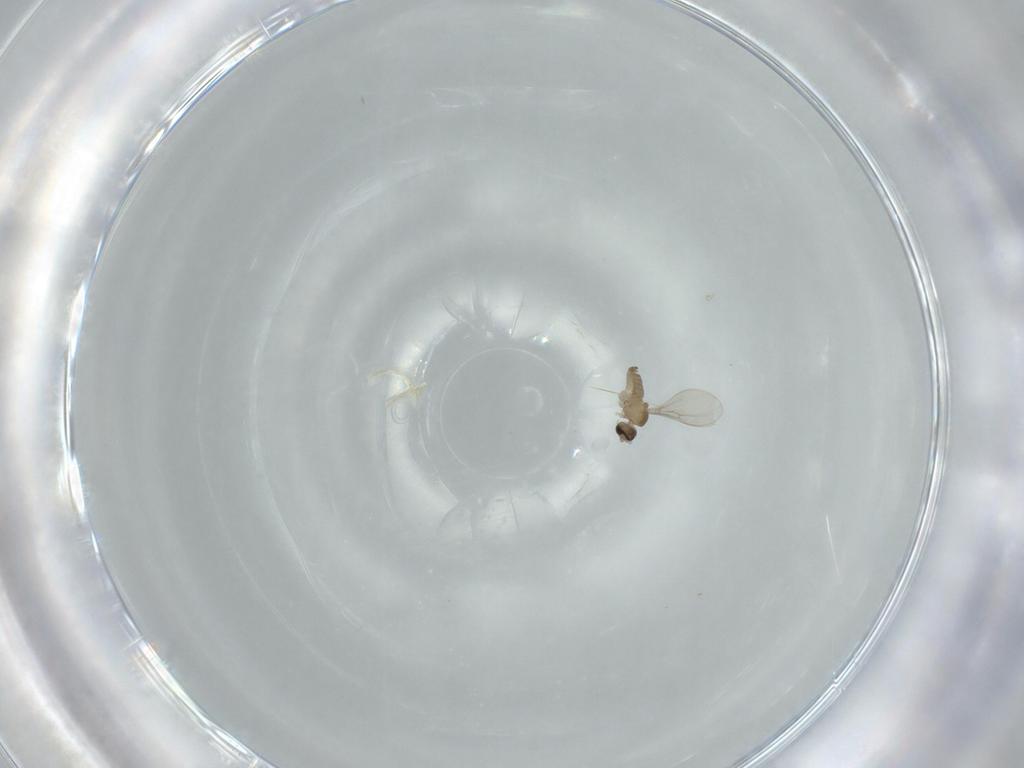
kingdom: Animalia
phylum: Arthropoda
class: Insecta
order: Diptera
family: Cecidomyiidae
